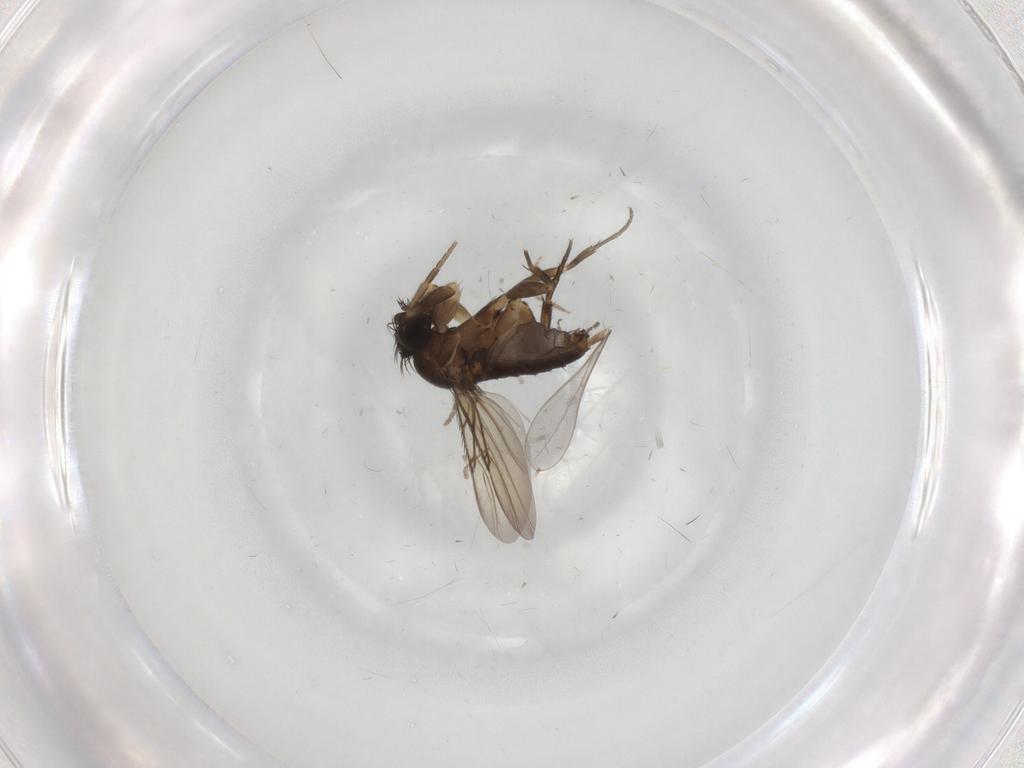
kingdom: Animalia
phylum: Arthropoda
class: Insecta
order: Diptera
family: Phoridae
